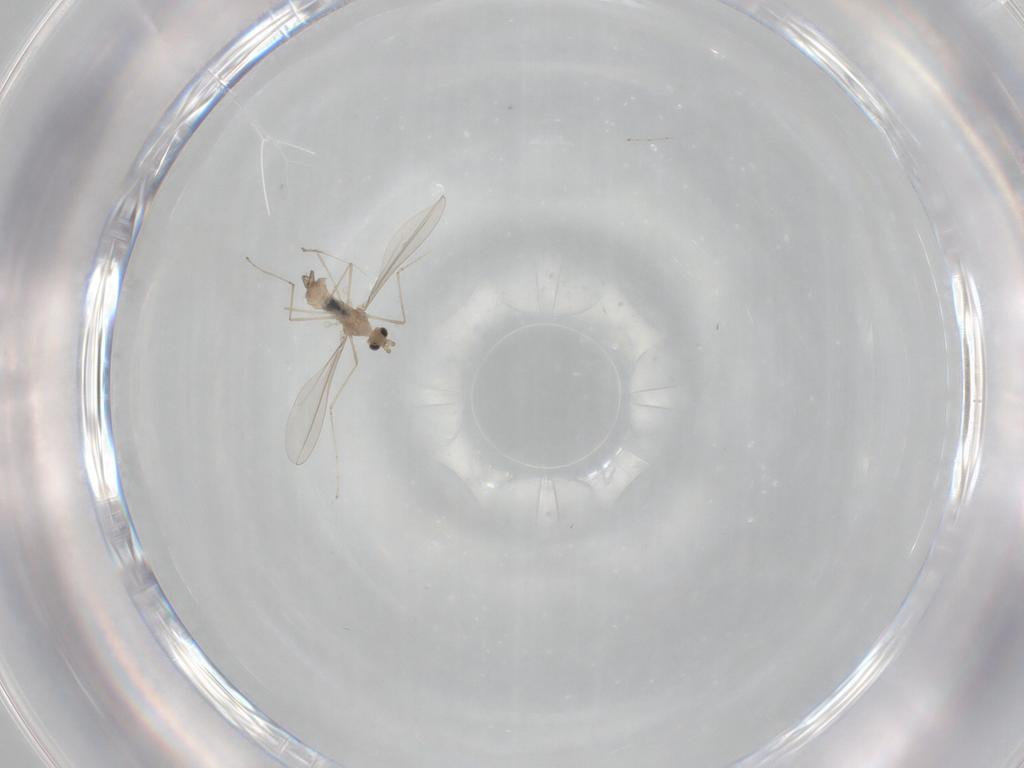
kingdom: Animalia
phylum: Arthropoda
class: Insecta
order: Diptera
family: Cecidomyiidae
